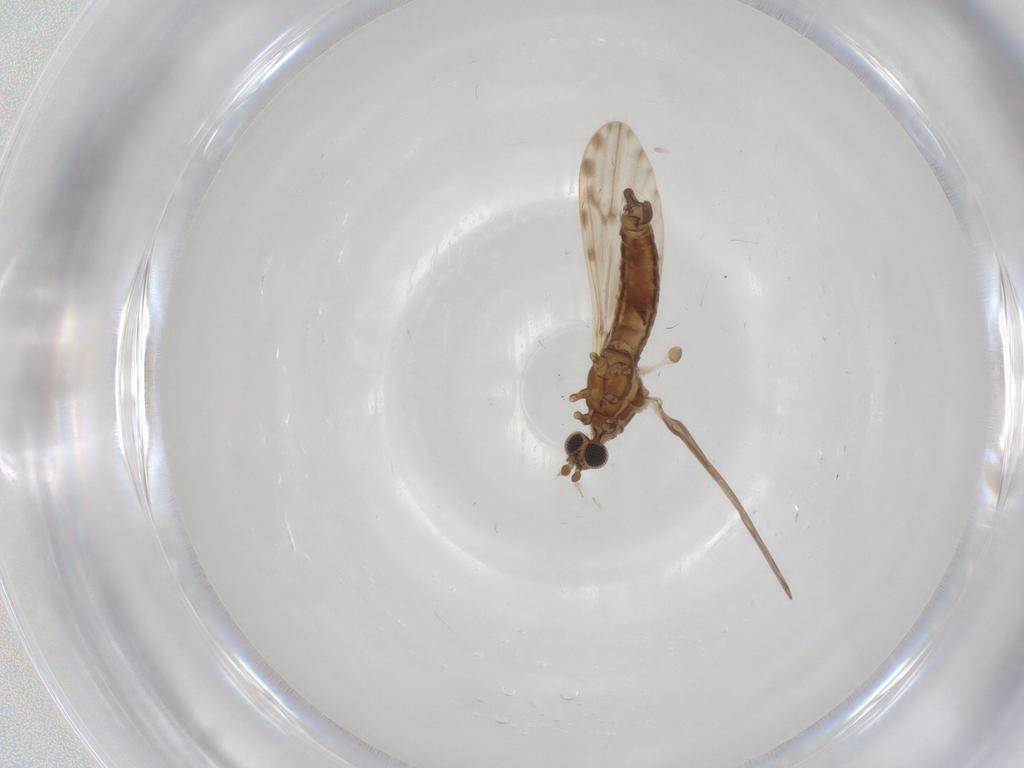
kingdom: Animalia
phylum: Arthropoda
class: Insecta
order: Diptera
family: Limoniidae
